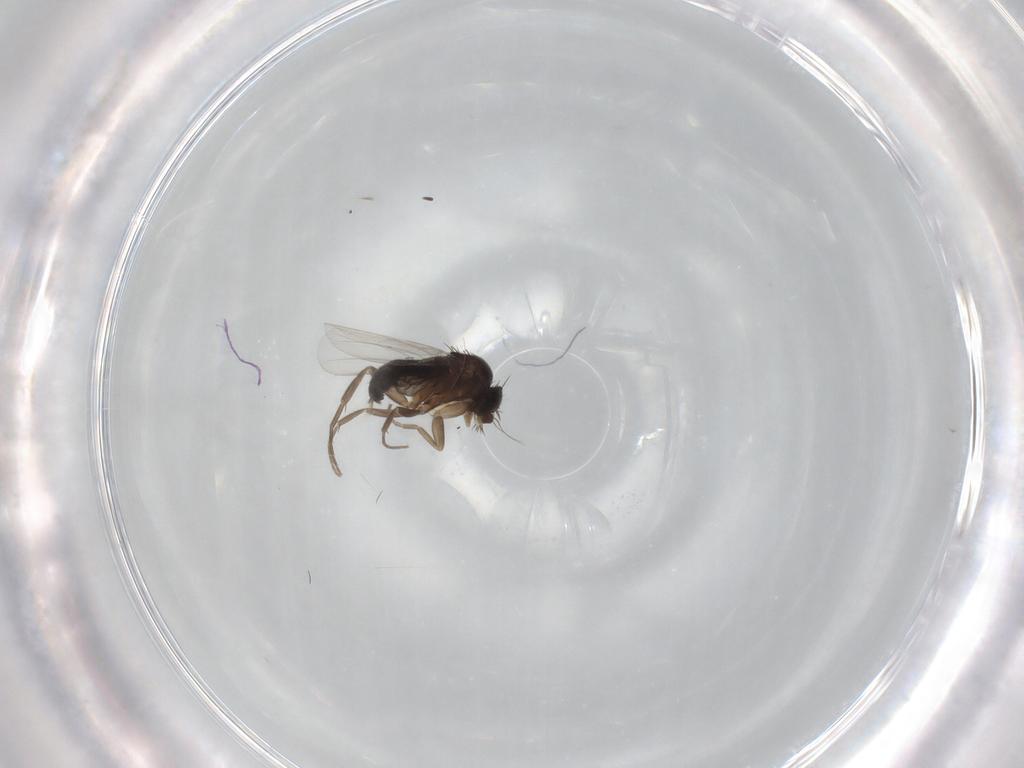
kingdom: Animalia
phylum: Arthropoda
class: Insecta
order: Diptera
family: Phoridae
